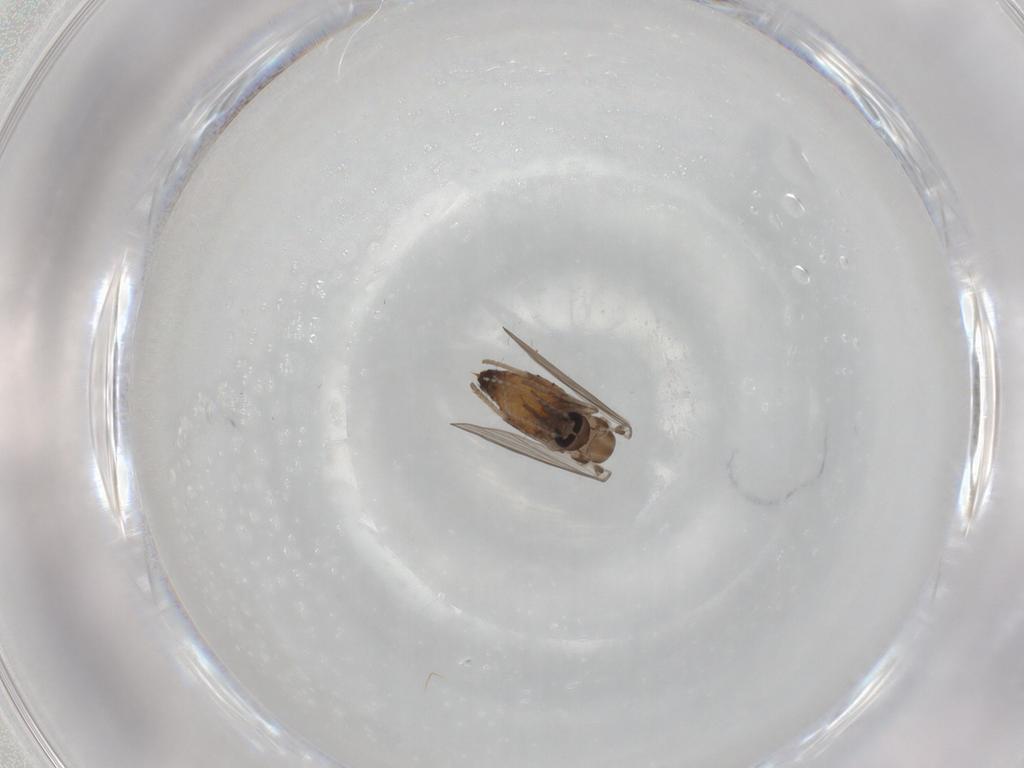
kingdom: Animalia
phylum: Arthropoda
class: Insecta
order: Diptera
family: Psychodidae
